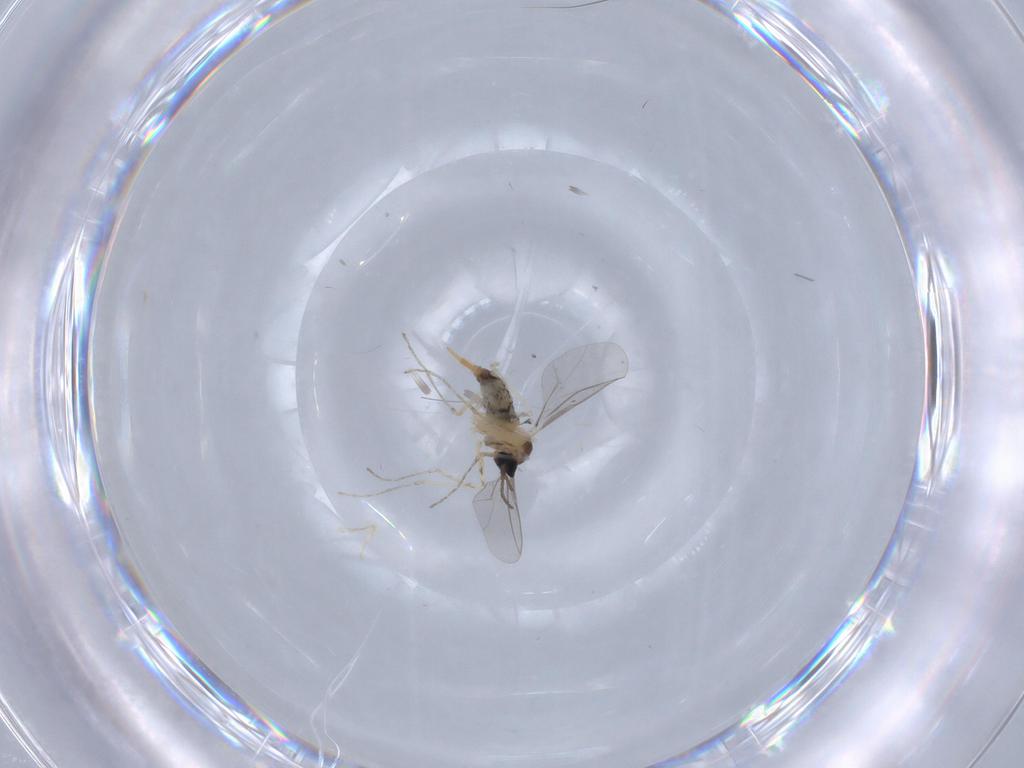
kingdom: Animalia
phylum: Arthropoda
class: Insecta
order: Diptera
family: Cecidomyiidae
